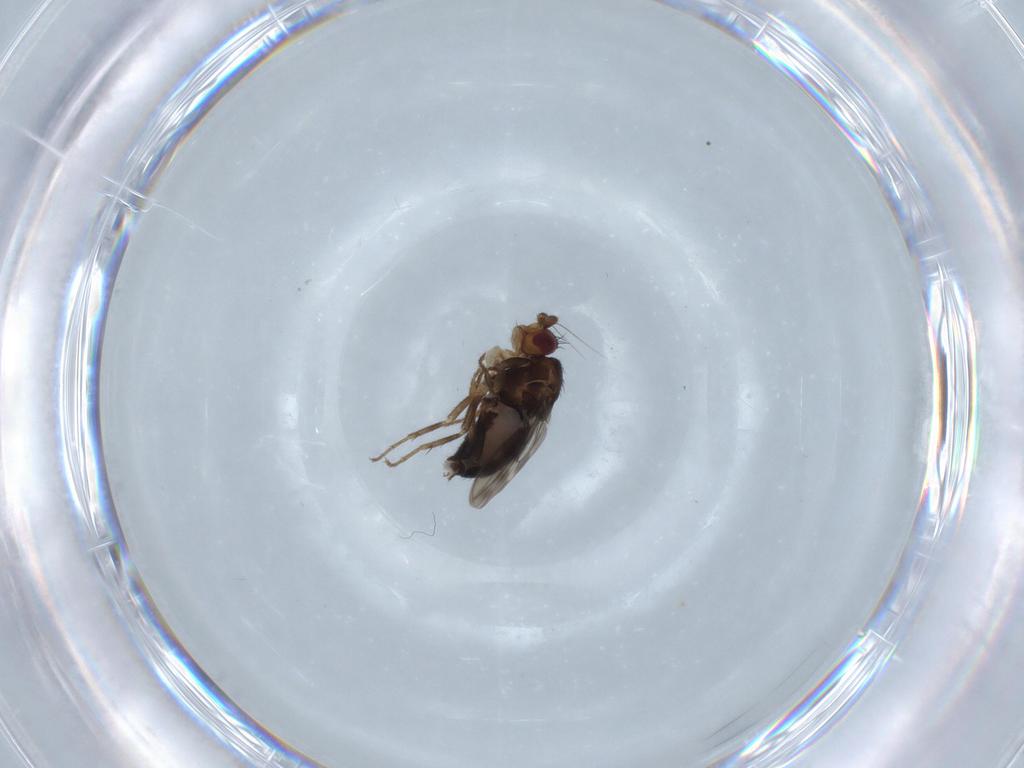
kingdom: Animalia
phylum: Arthropoda
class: Insecta
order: Diptera
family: Sphaeroceridae
